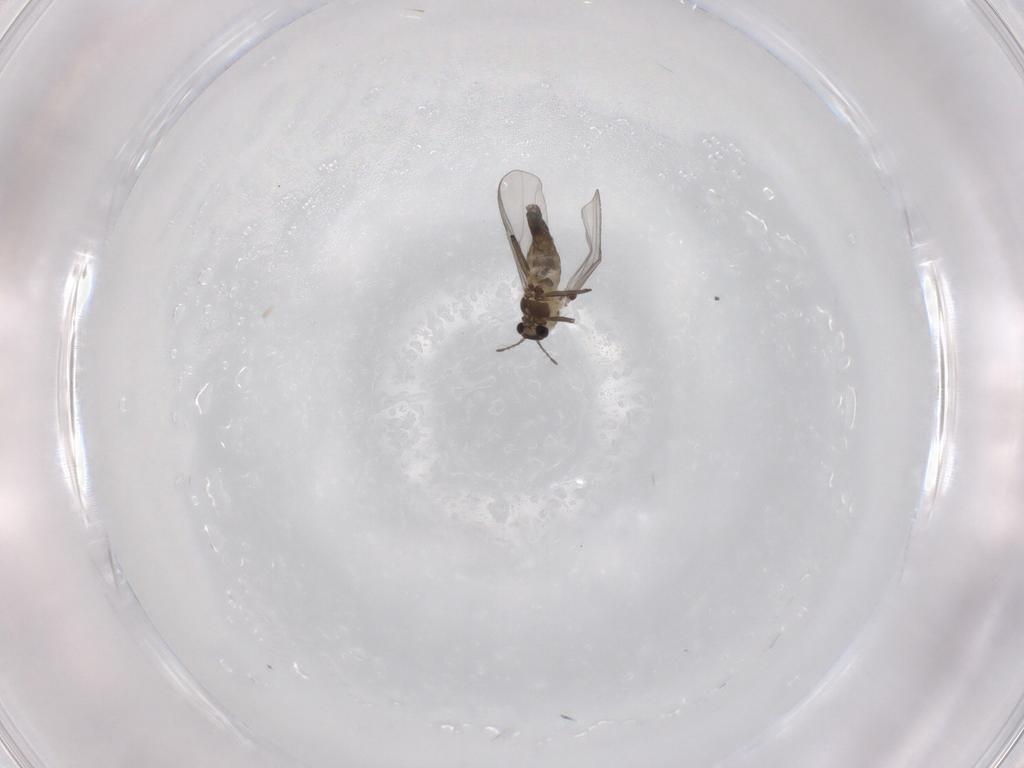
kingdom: Animalia
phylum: Arthropoda
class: Insecta
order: Diptera
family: Chironomidae
